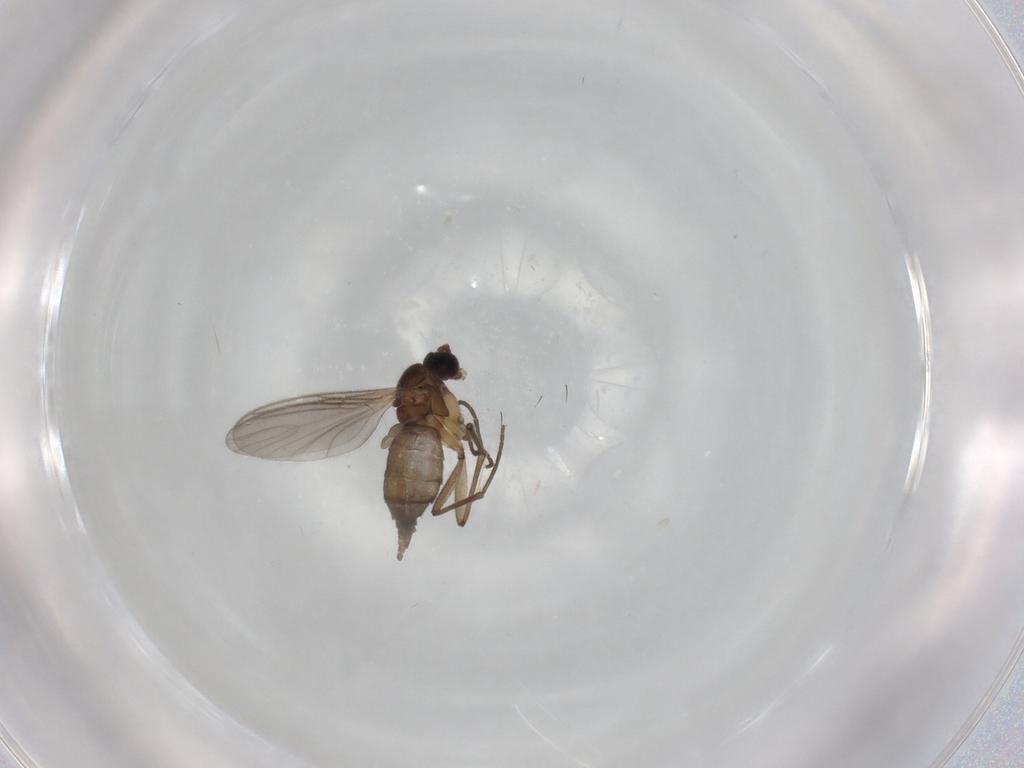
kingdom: Animalia
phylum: Arthropoda
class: Insecta
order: Diptera
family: Sciaridae
